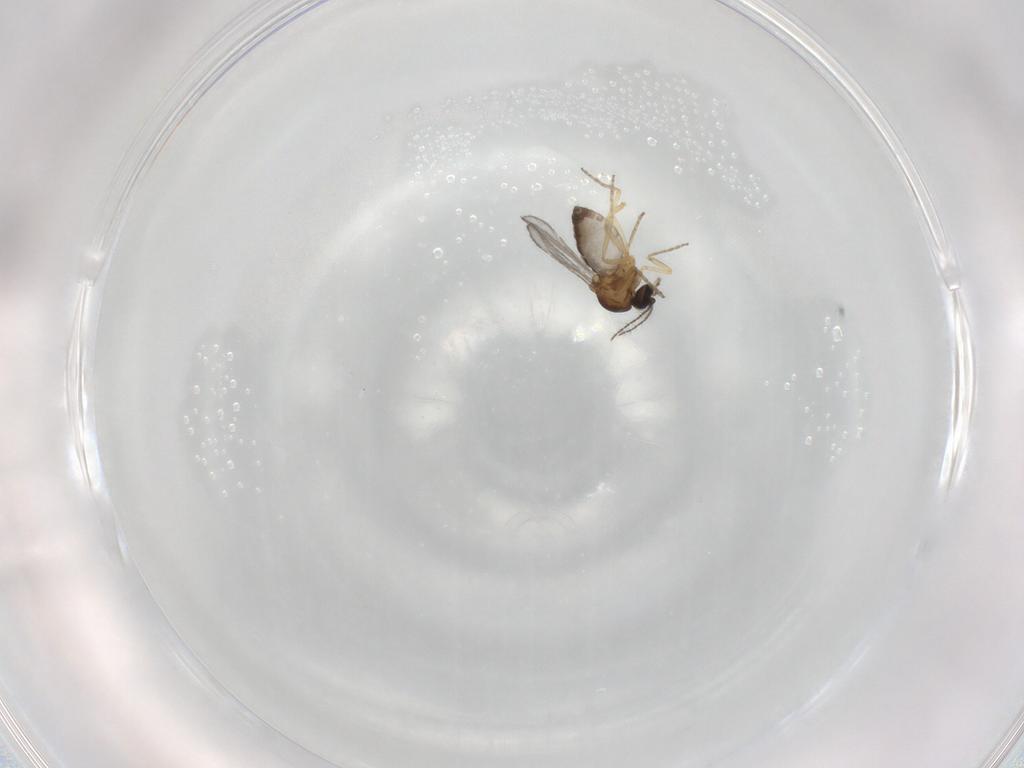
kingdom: Animalia
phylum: Arthropoda
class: Insecta
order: Diptera
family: Ceratopogonidae
